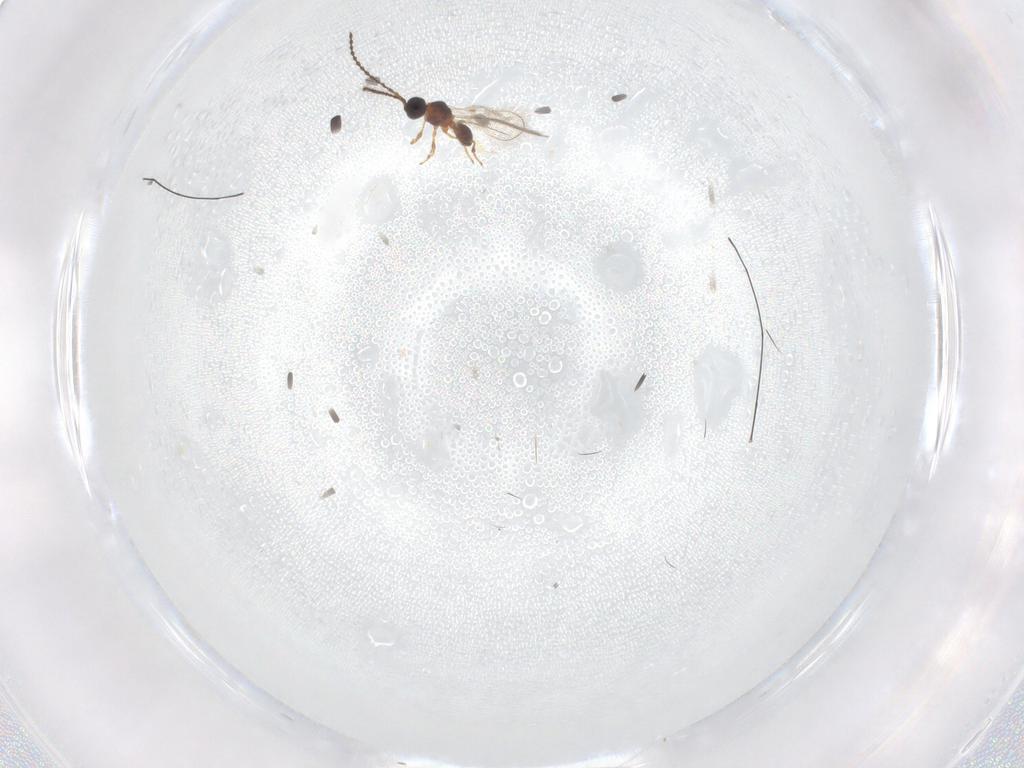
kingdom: Animalia
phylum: Arthropoda
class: Insecta
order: Hymenoptera
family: Diapriidae
